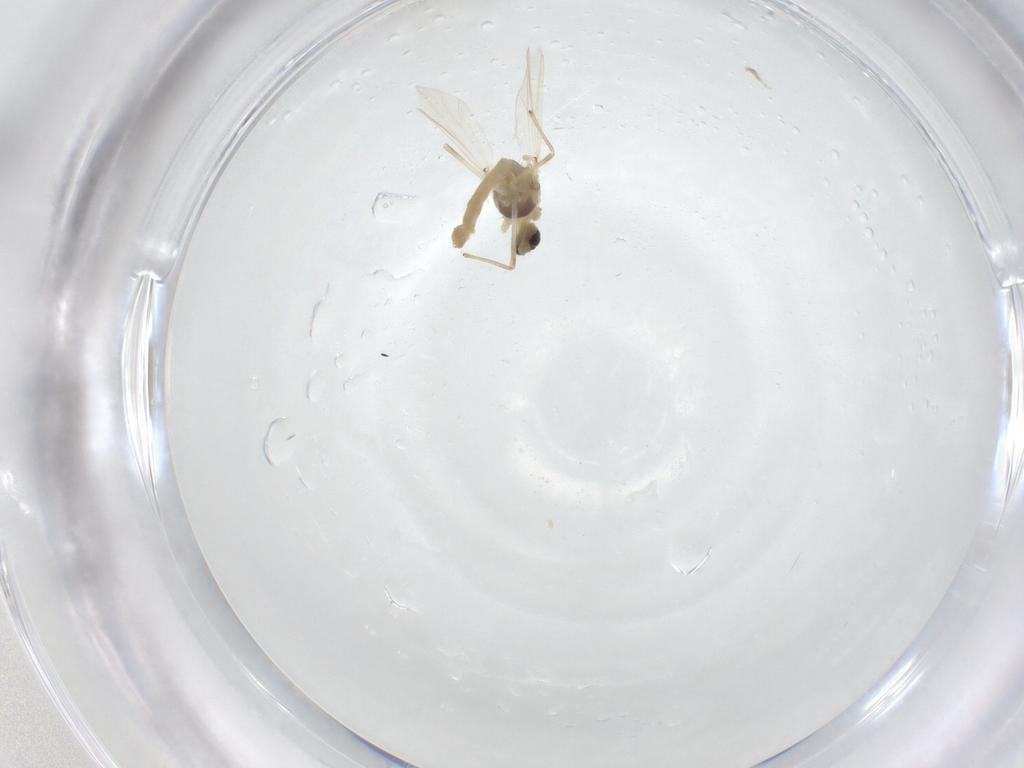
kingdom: Animalia
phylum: Arthropoda
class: Insecta
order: Diptera
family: Chironomidae
